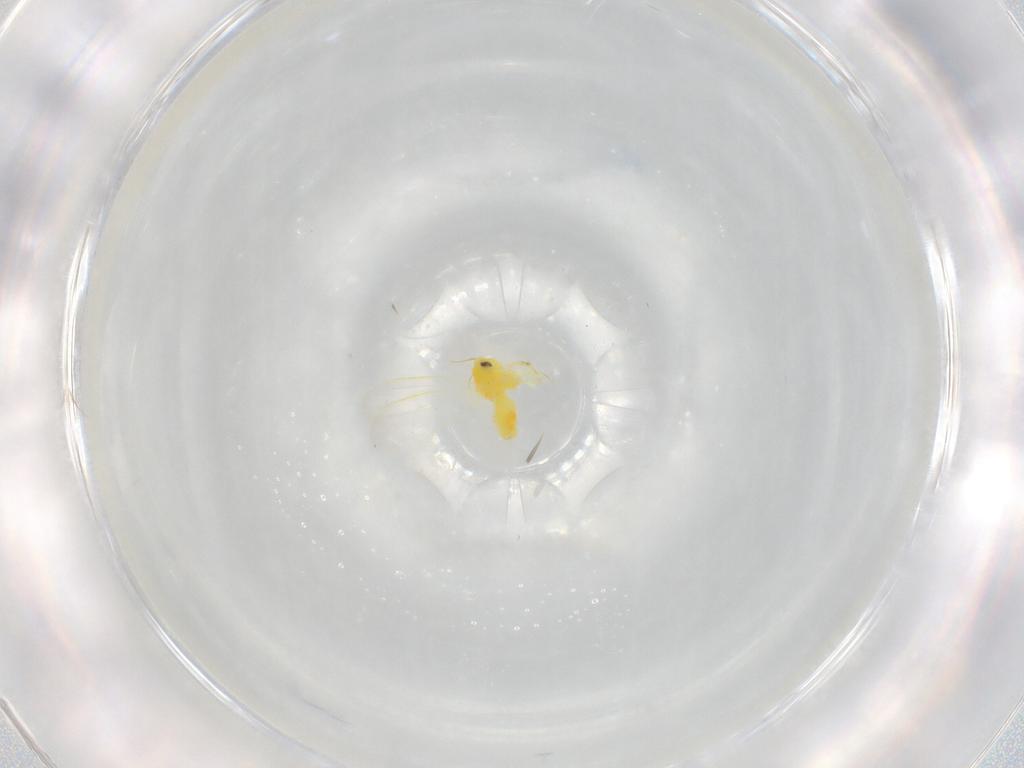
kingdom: Animalia
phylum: Arthropoda
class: Insecta
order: Hemiptera
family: Aleyrodidae
